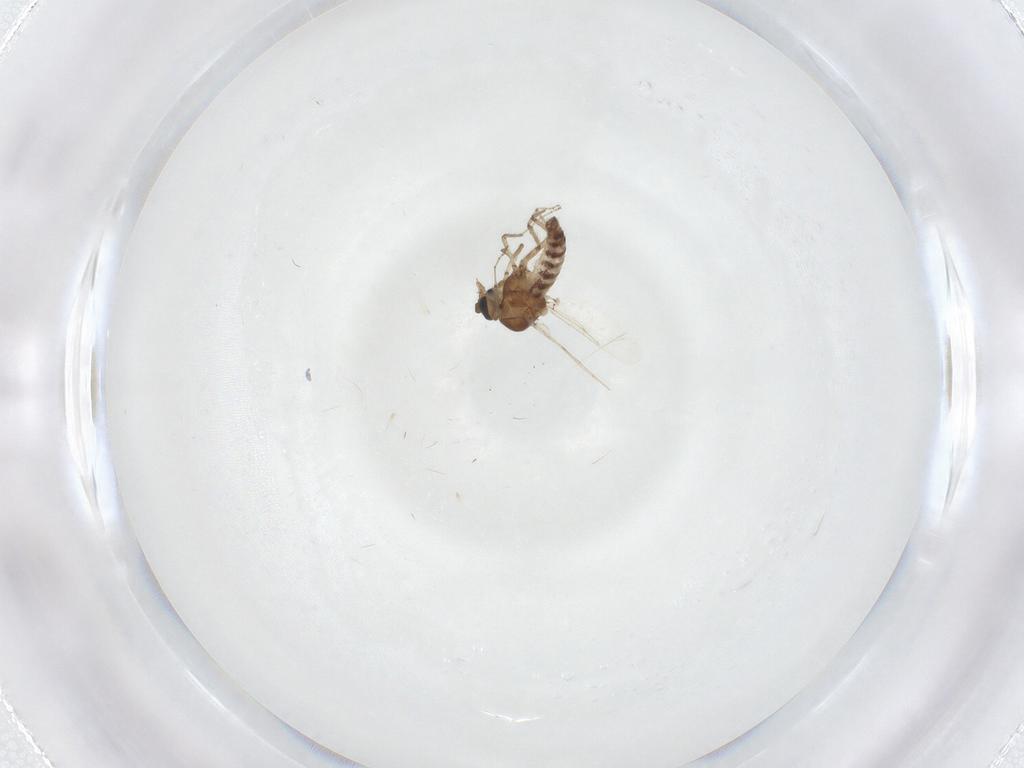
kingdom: Animalia
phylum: Arthropoda
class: Insecta
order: Diptera
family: Ceratopogonidae
